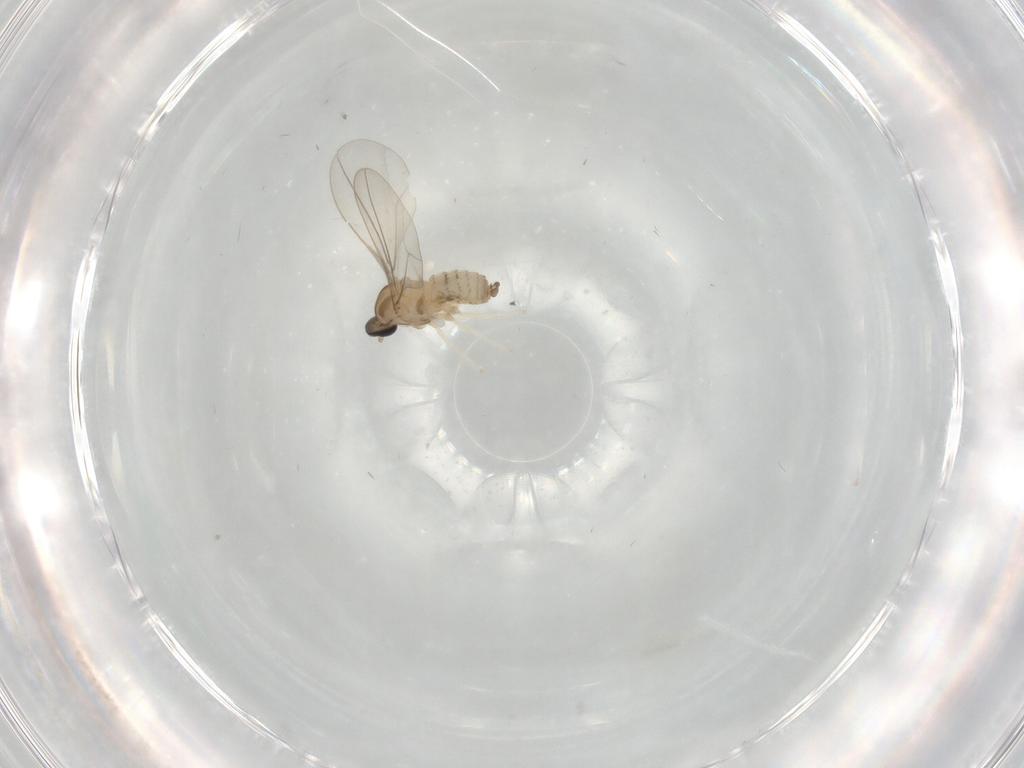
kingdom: Animalia
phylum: Arthropoda
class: Insecta
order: Diptera
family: Cecidomyiidae
